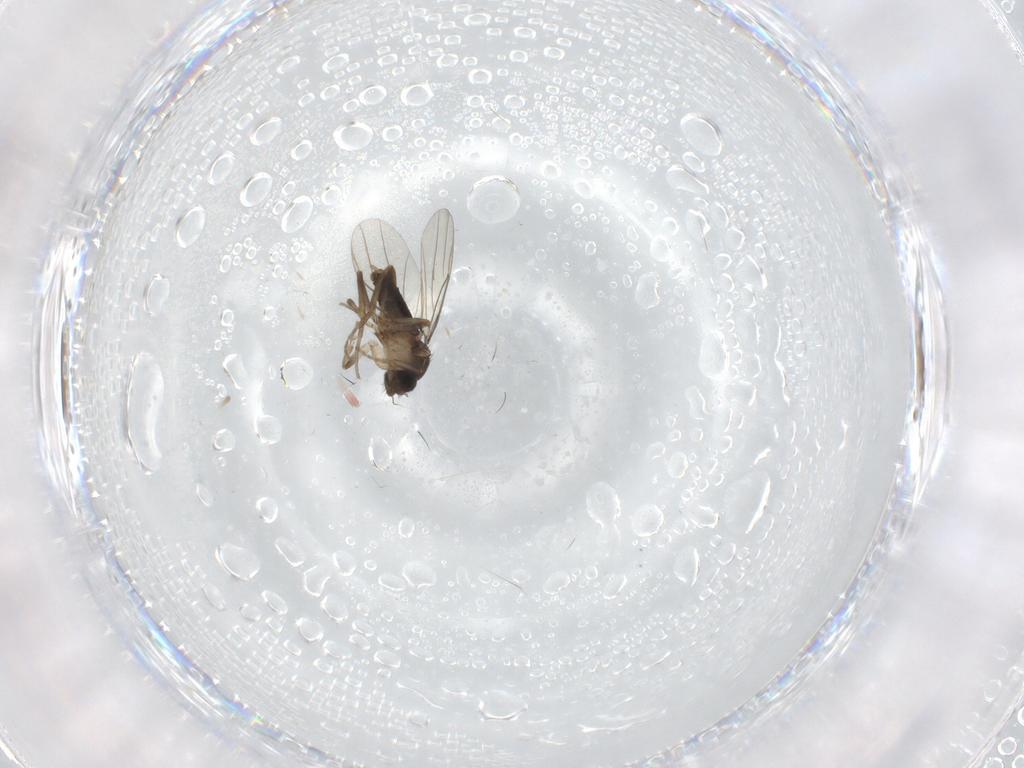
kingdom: Animalia
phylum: Arthropoda
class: Insecta
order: Diptera
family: Phoridae
